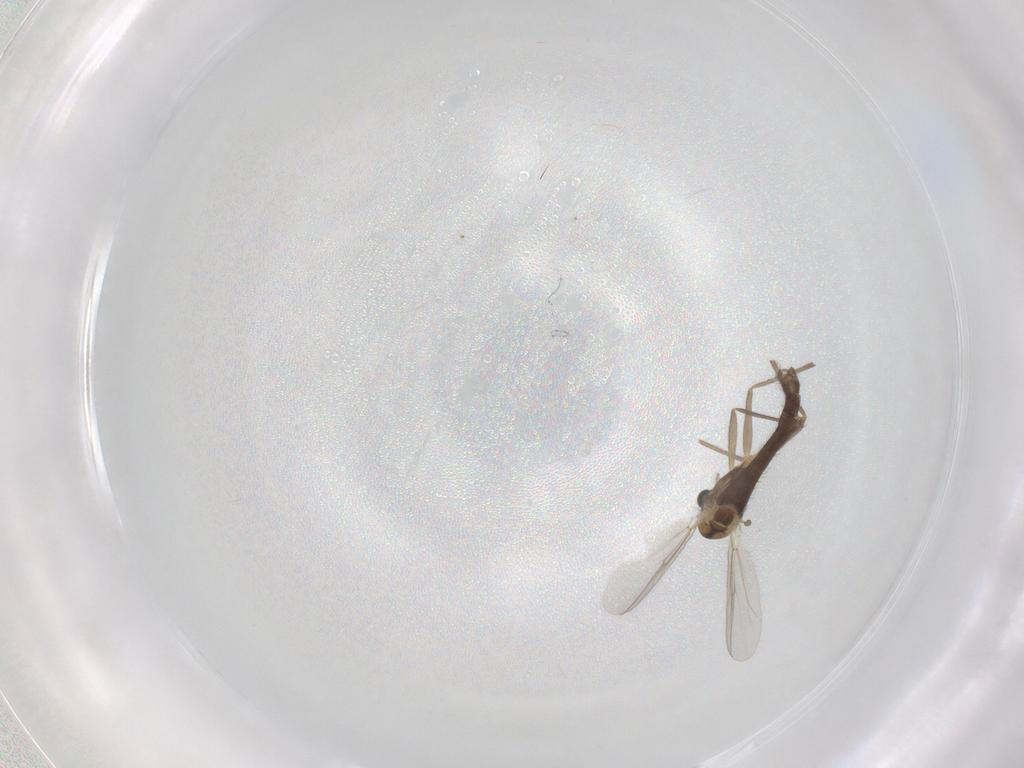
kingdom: Animalia
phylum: Arthropoda
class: Insecta
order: Diptera
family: Chironomidae
